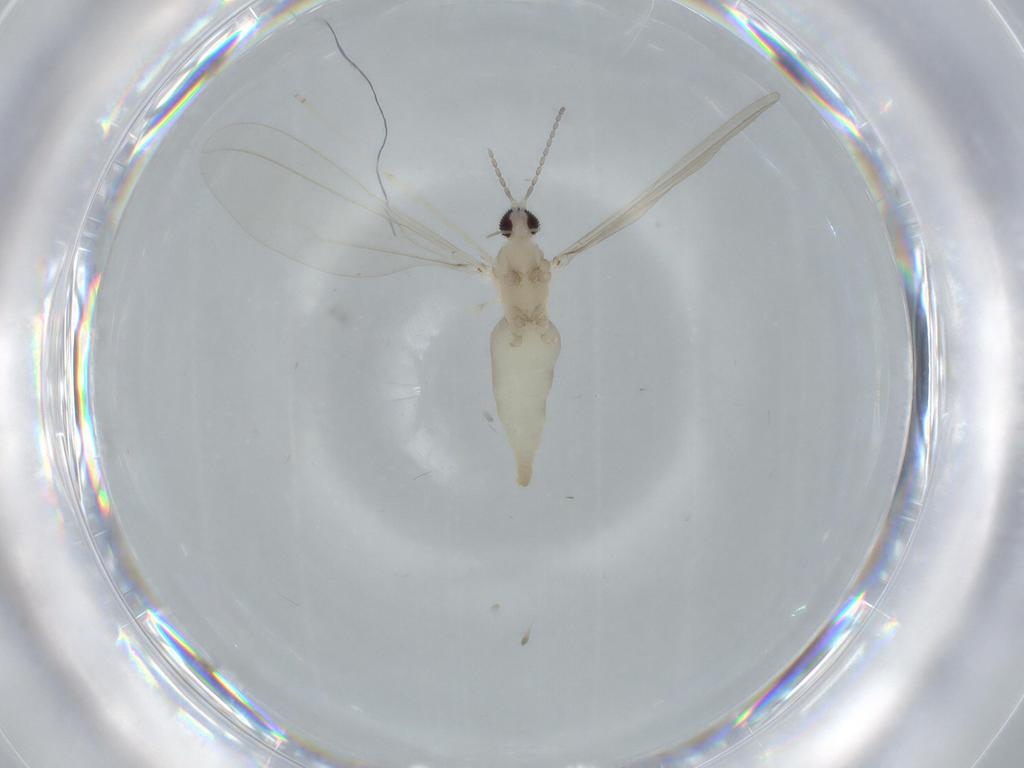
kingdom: Animalia
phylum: Arthropoda
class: Insecta
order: Diptera
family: Cecidomyiidae
